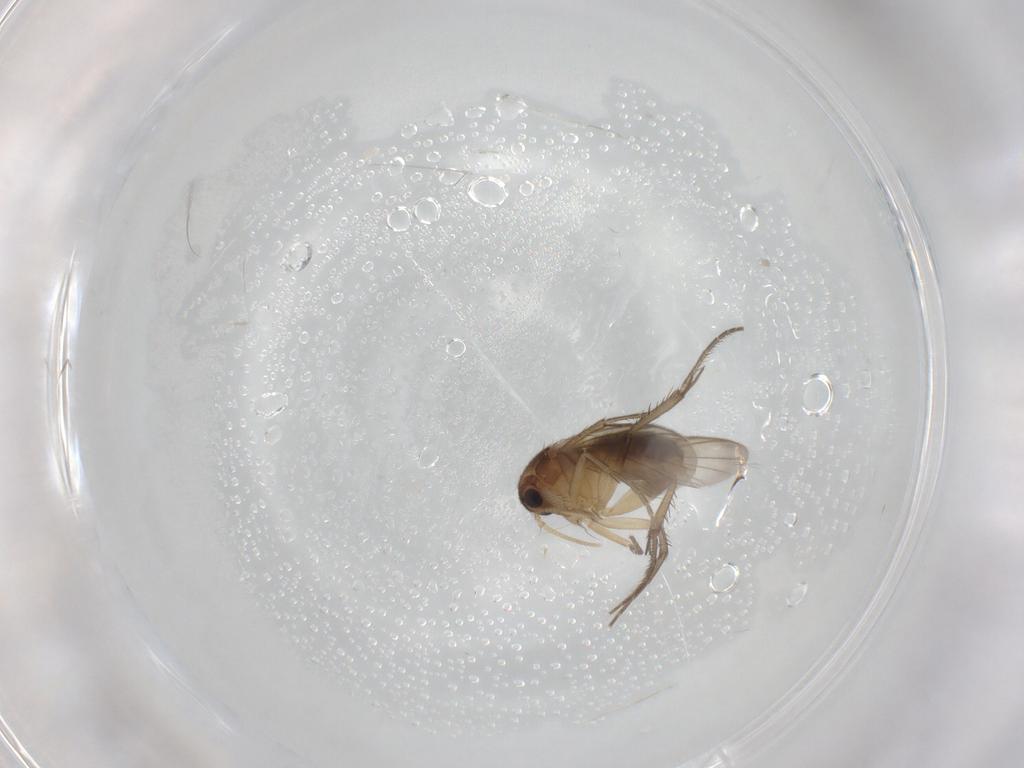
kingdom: Animalia
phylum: Arthropoda
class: Insecta
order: Diptera
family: Phoridae
